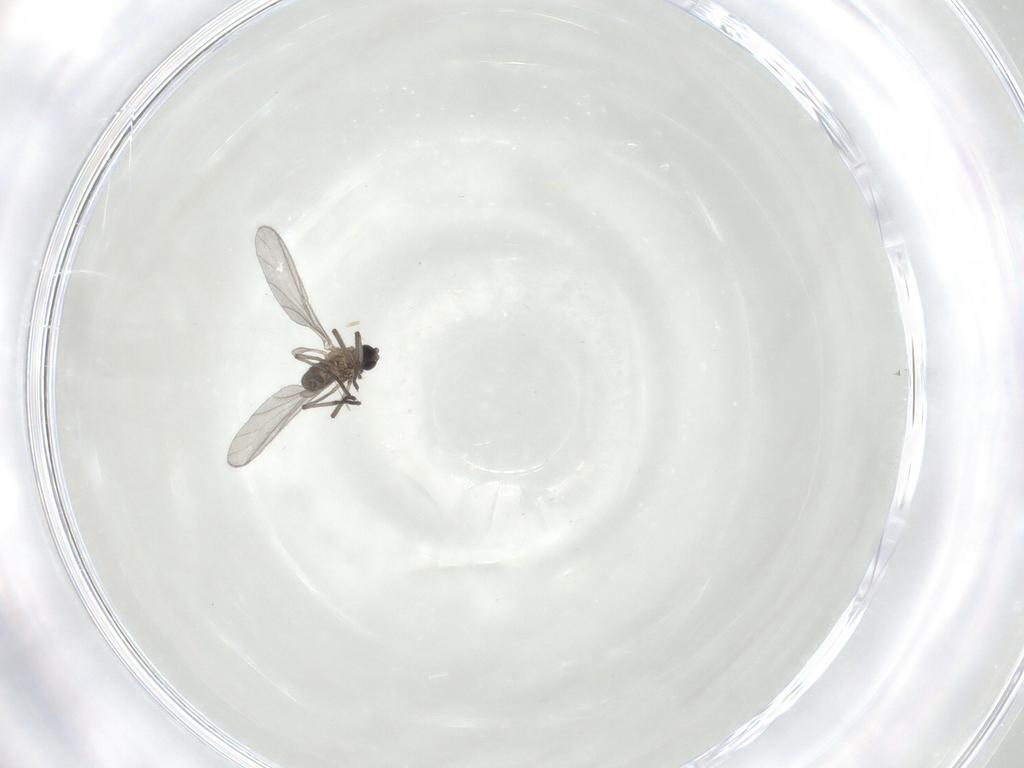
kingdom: Animalia
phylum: Arthropoda
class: Insecta
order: Diptera
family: Sciaridae
